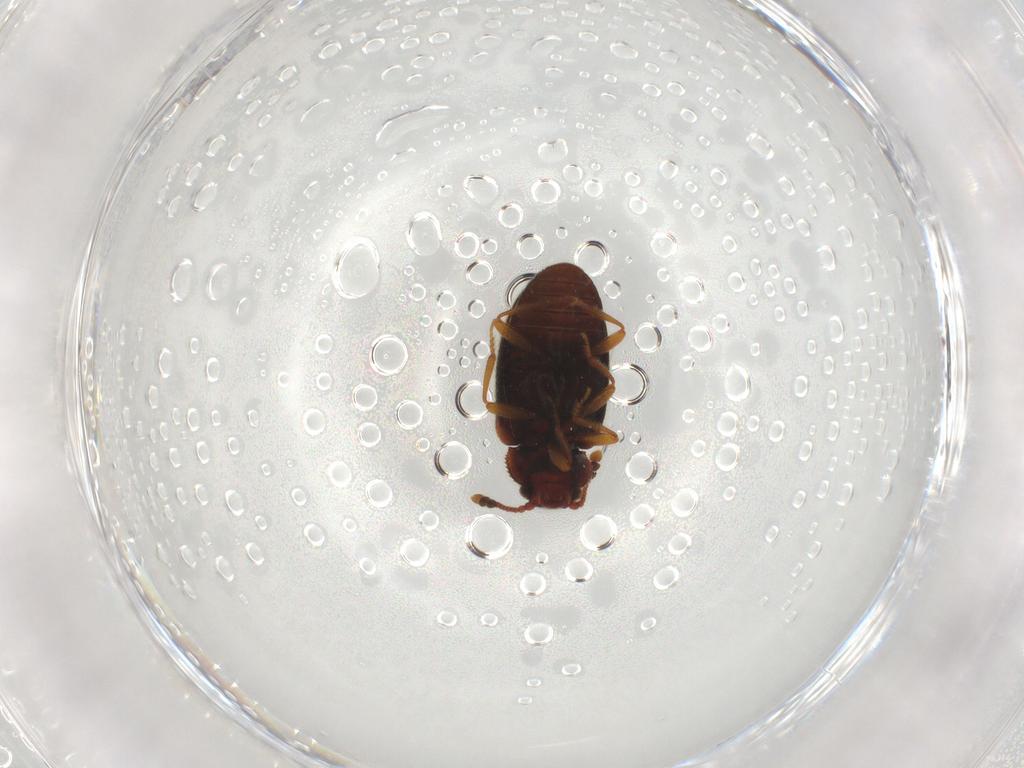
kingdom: Animalia
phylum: Arthropoda
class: Insecta
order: Coleoptera
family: Cryptophagidae
